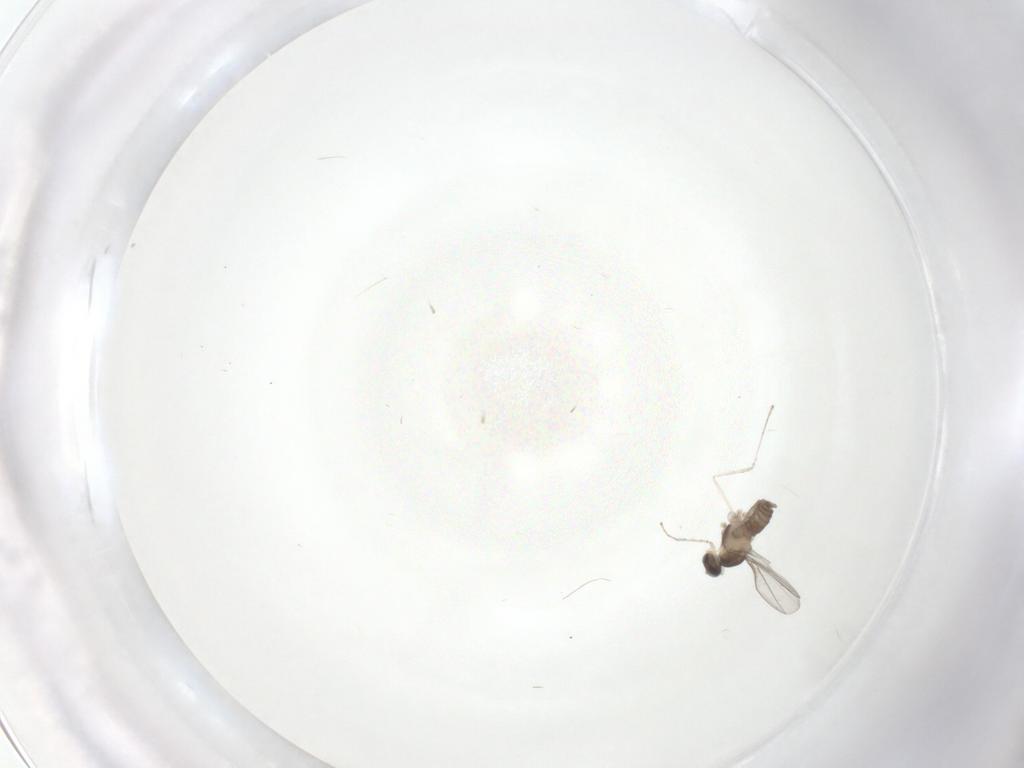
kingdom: Animalia
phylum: Arthropoda
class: Insecta
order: Diptera
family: Cecidomyiidae
